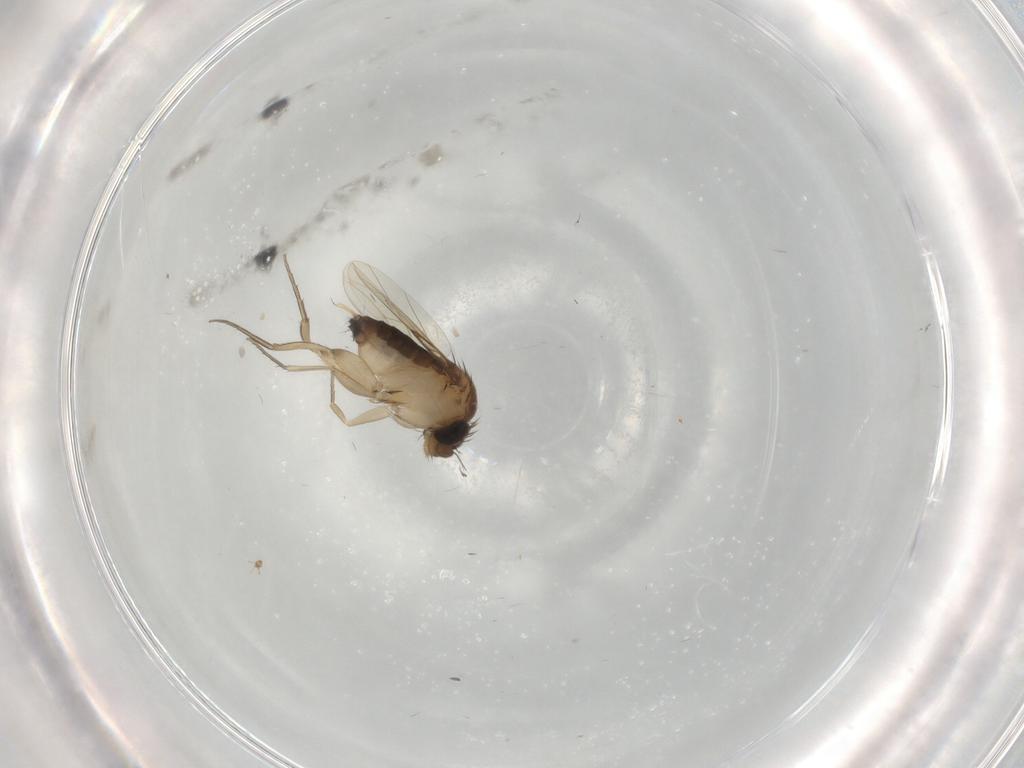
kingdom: Animalia
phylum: Arthropoda
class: Insecta
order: Diptera
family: Phoridae
